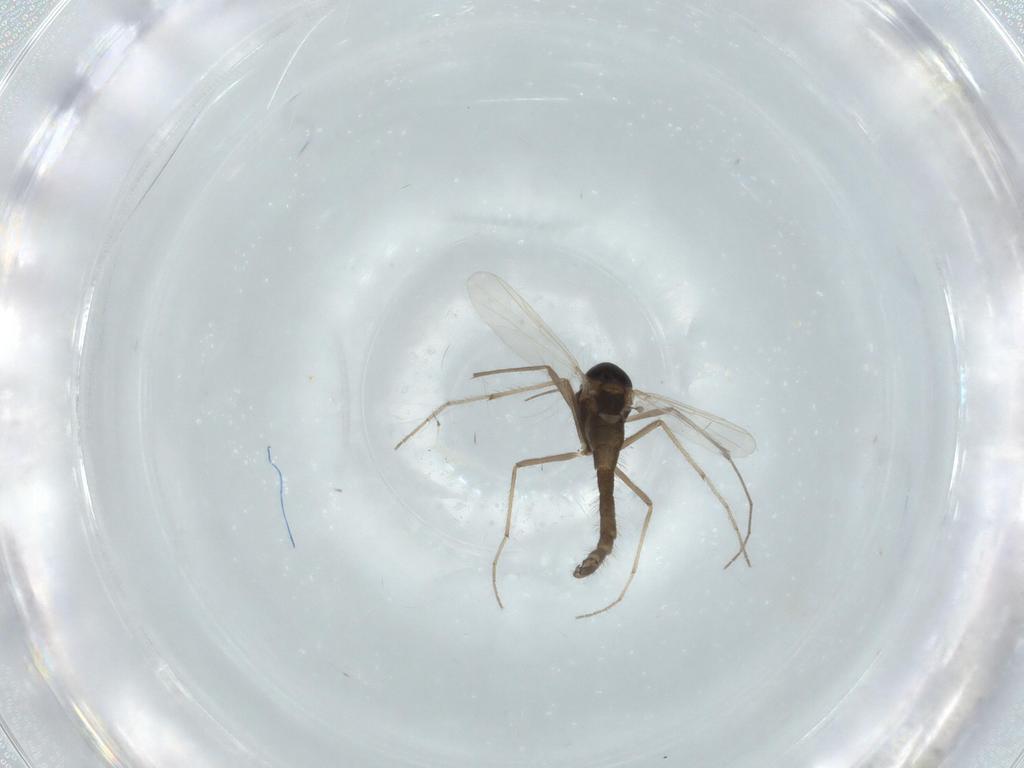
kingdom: Animalia
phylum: Arthropoda
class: Insecta
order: Diptera
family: Chironomidae
